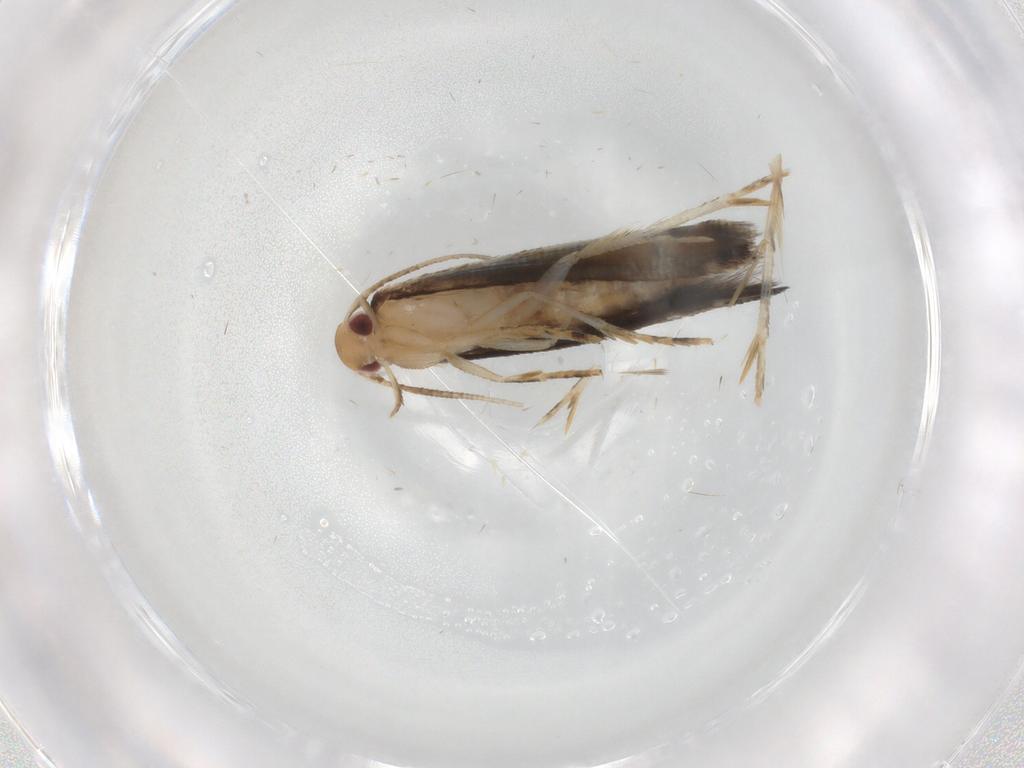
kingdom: Animalia
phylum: Arthropoda
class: Insecta
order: Lepidoptera
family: Momphidae
